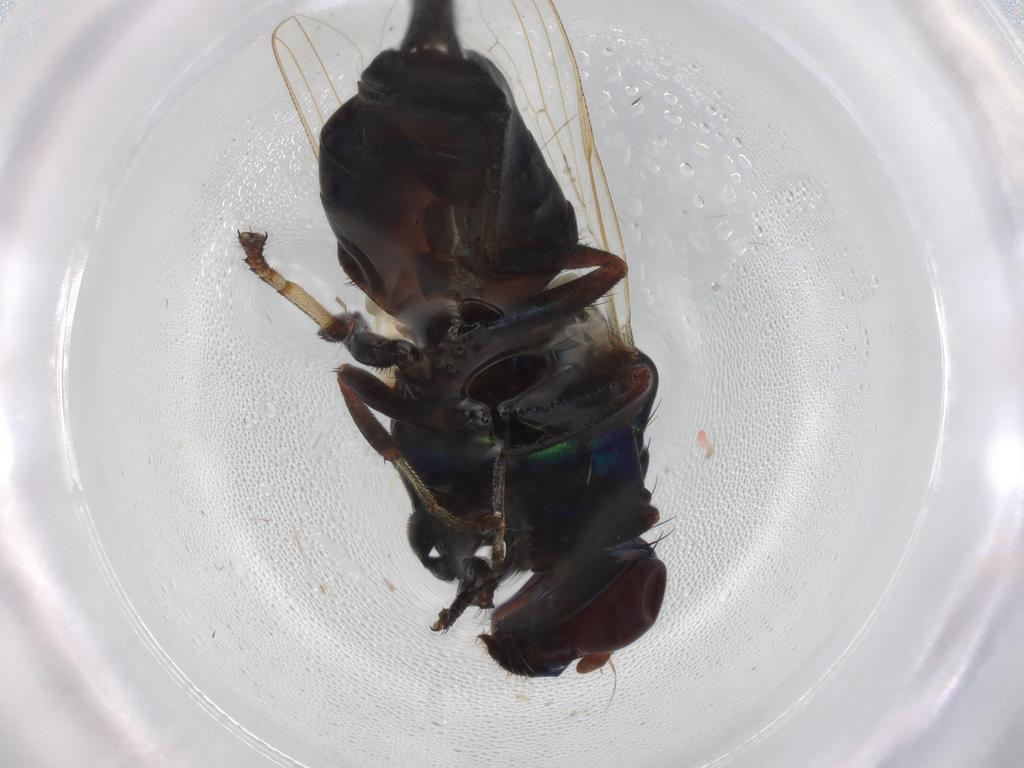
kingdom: Animalia
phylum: Arthropoda
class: Insecta
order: Diptera
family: Ulidiidae
